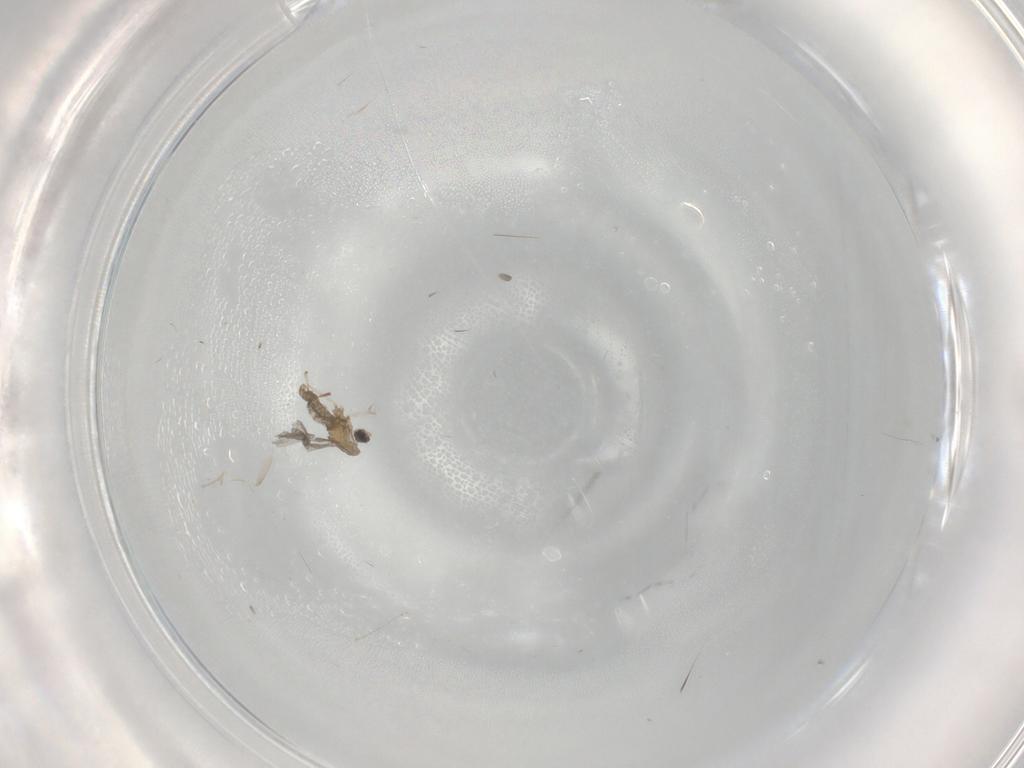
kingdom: Animalia
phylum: Arthropoda
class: Insecta
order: Diptera
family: Cecidomyiidae
